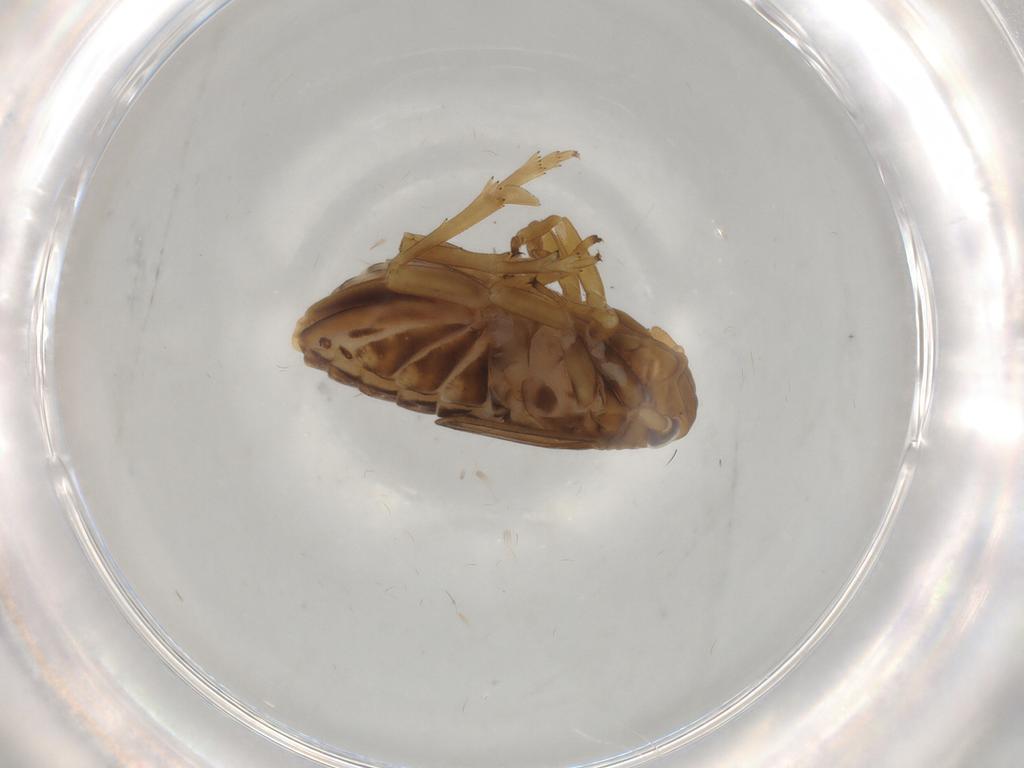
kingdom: Animalia
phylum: Arthropoda
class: Insecta
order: Hemiptera
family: Delphacidae
